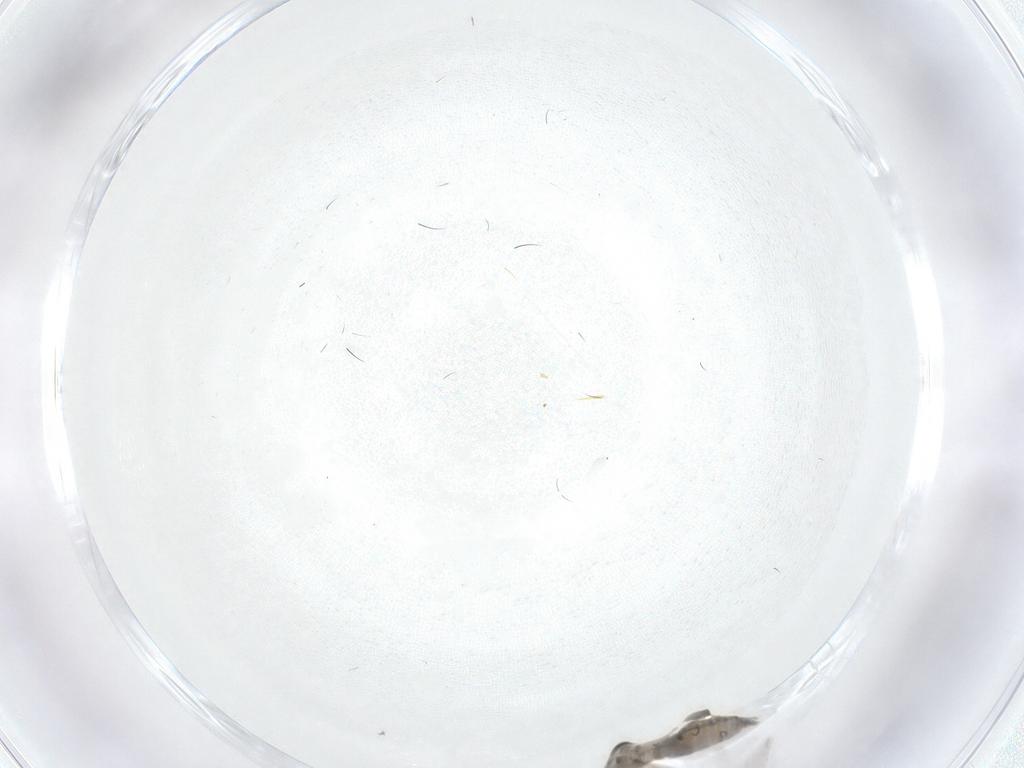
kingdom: Animalia
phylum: Arthropoda
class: Insecta
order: Diptera
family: Psychodidae
